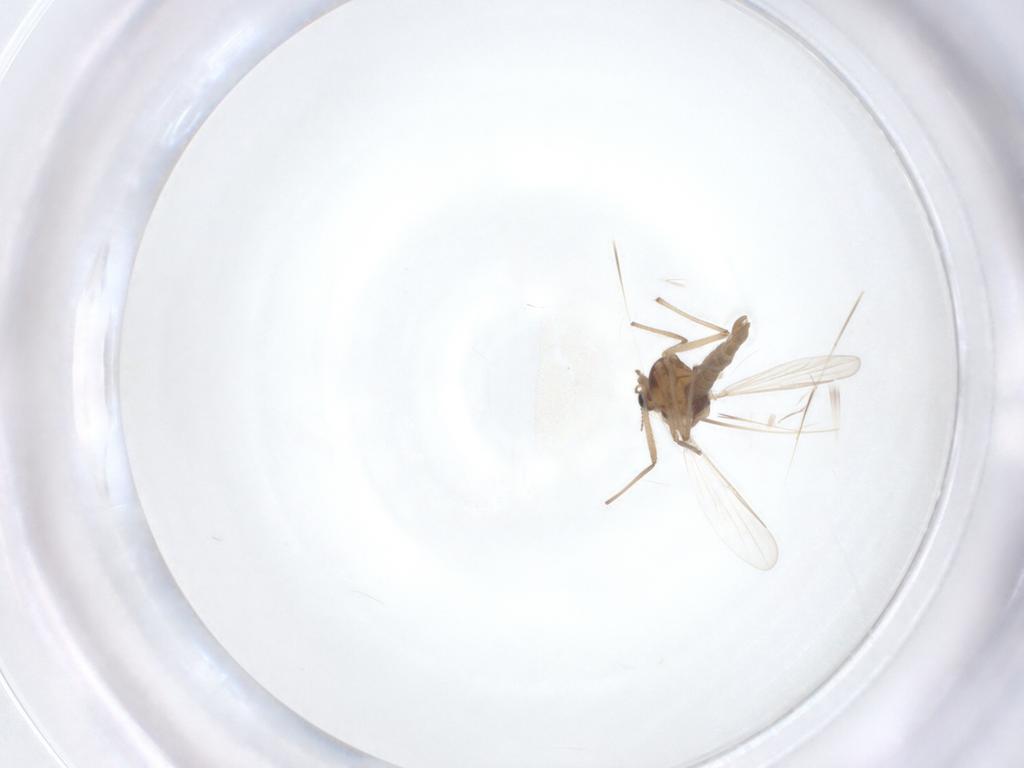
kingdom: Animalia
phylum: Arthropoda
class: Insecta
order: Diptera
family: Chironomidae
